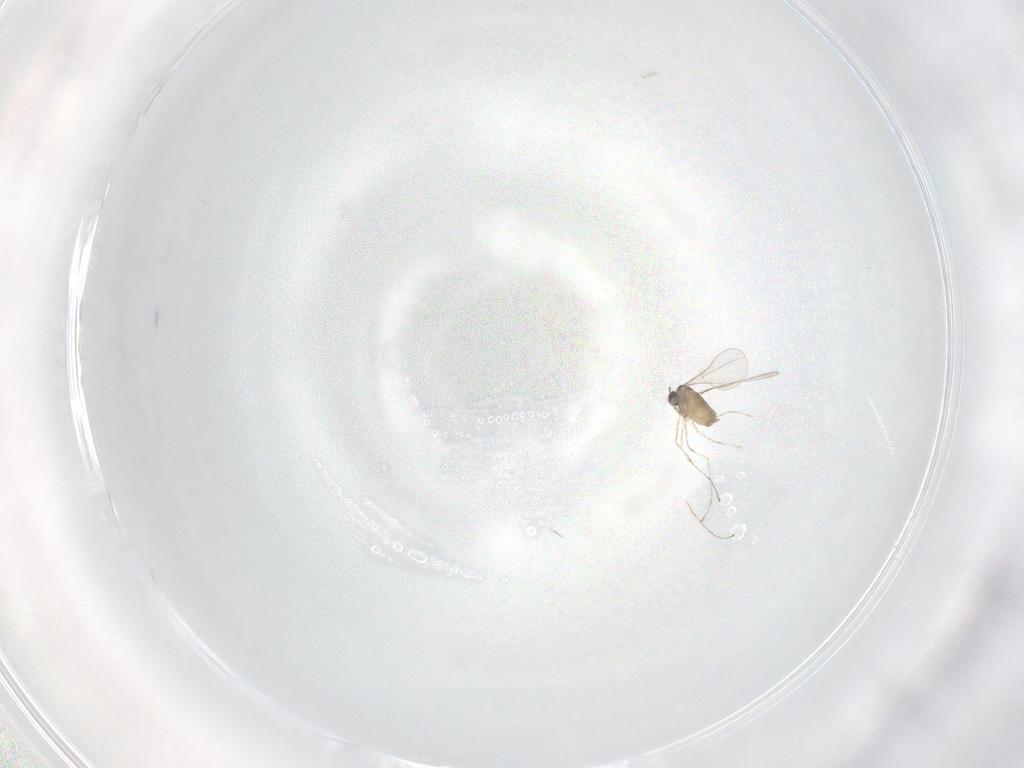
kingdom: Animalia
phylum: Arthropoda
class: Insecta
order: Diptera
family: Cecidomyiidae
